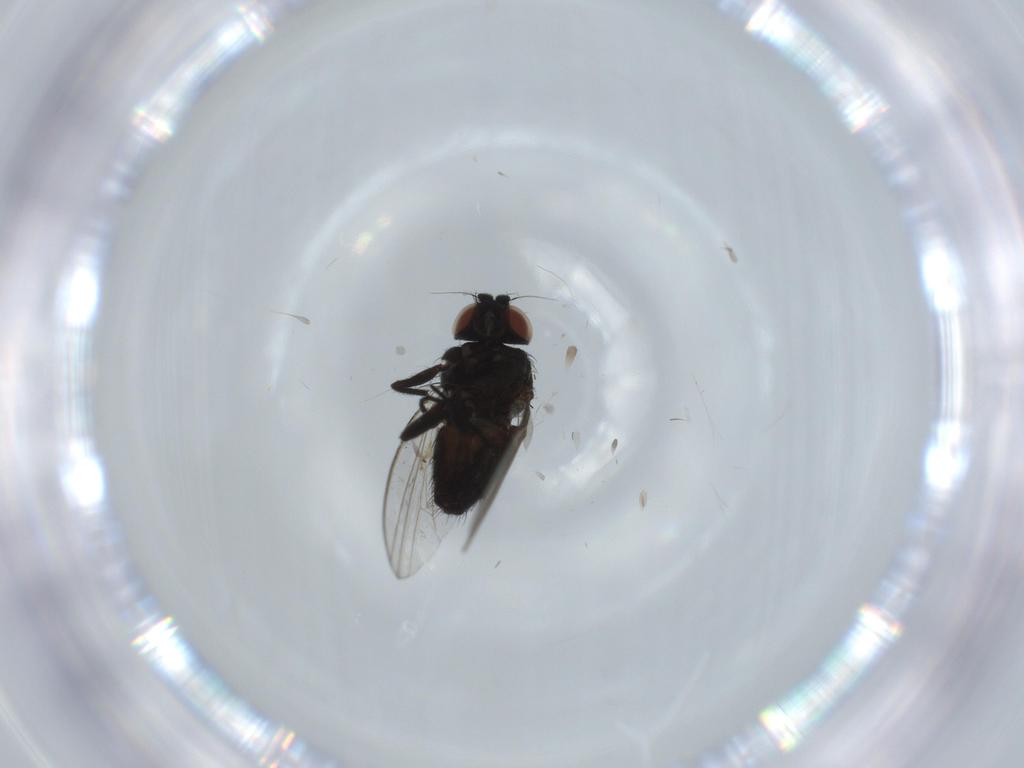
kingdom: Animalia
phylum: Arthropoda
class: Insecta
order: Diptera
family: Milichiidae
